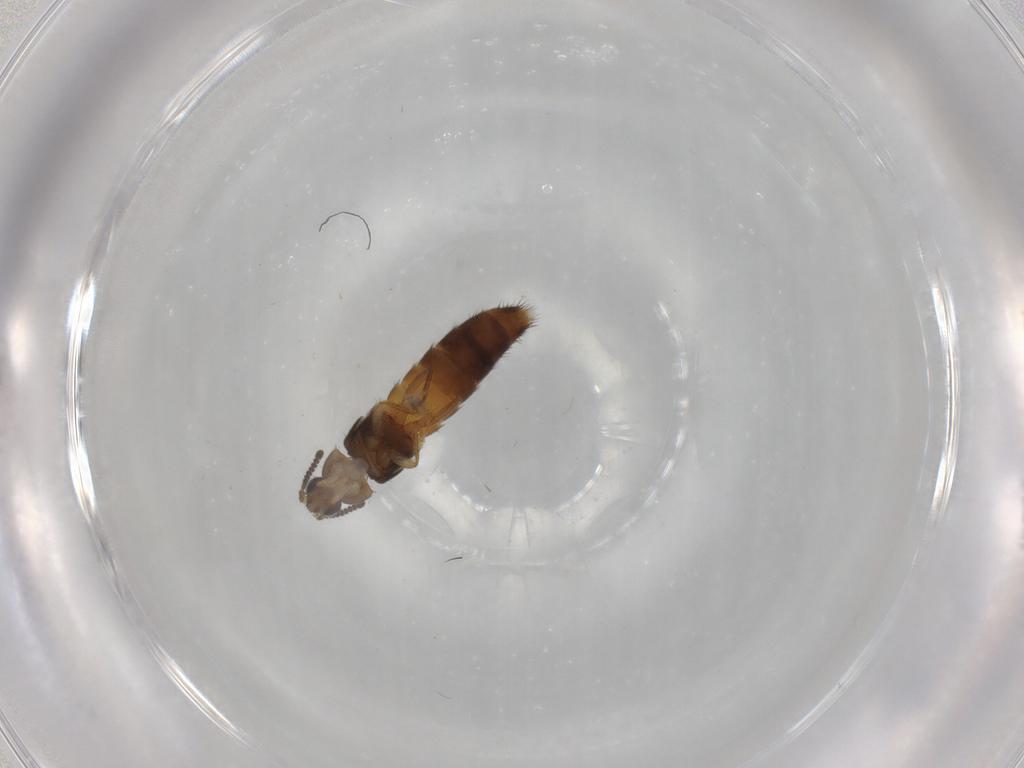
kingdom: Animalia
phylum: Arthropoda
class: Insecta
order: Coleoptera
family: Staphylinidae
